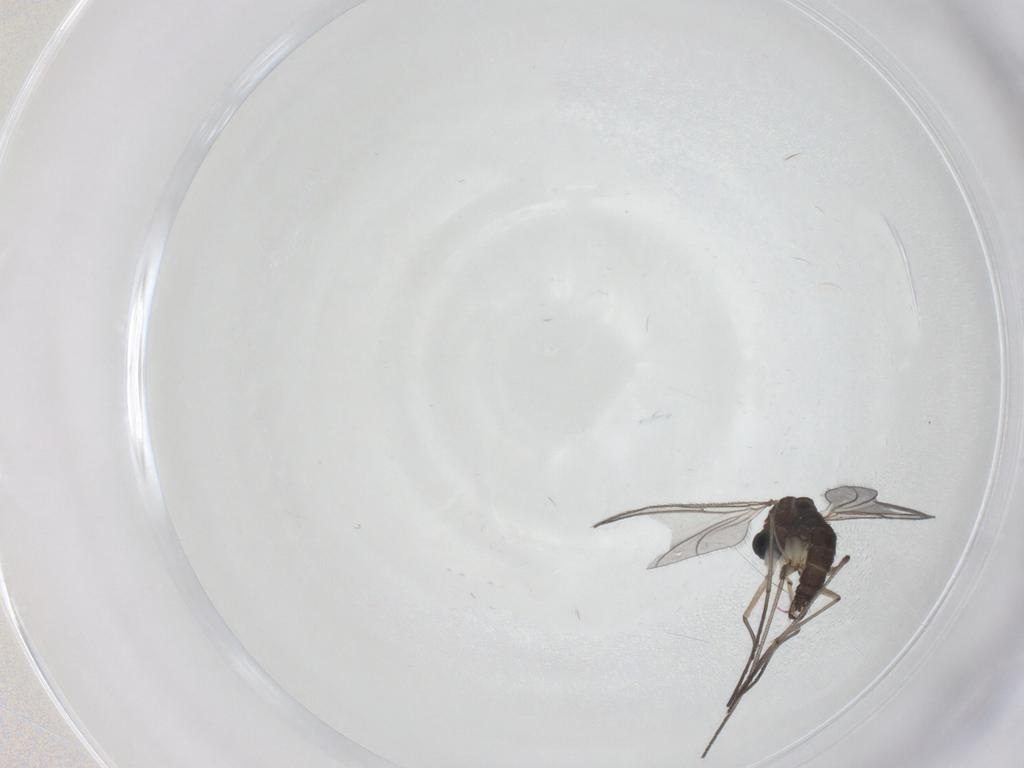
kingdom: Animalia
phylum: Arthropoda
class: Insecta
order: Diptera
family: Sciaridae
